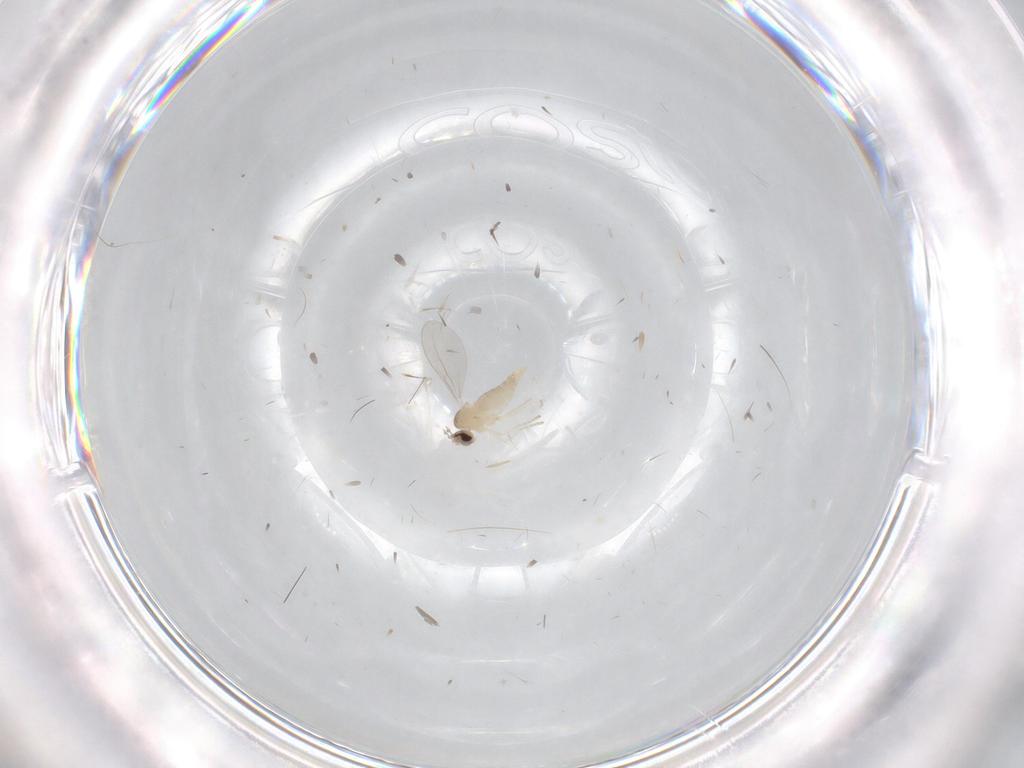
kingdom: Animalia
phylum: Arthropoda
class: Insecta
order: Diptera
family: Cecidomyiidae
